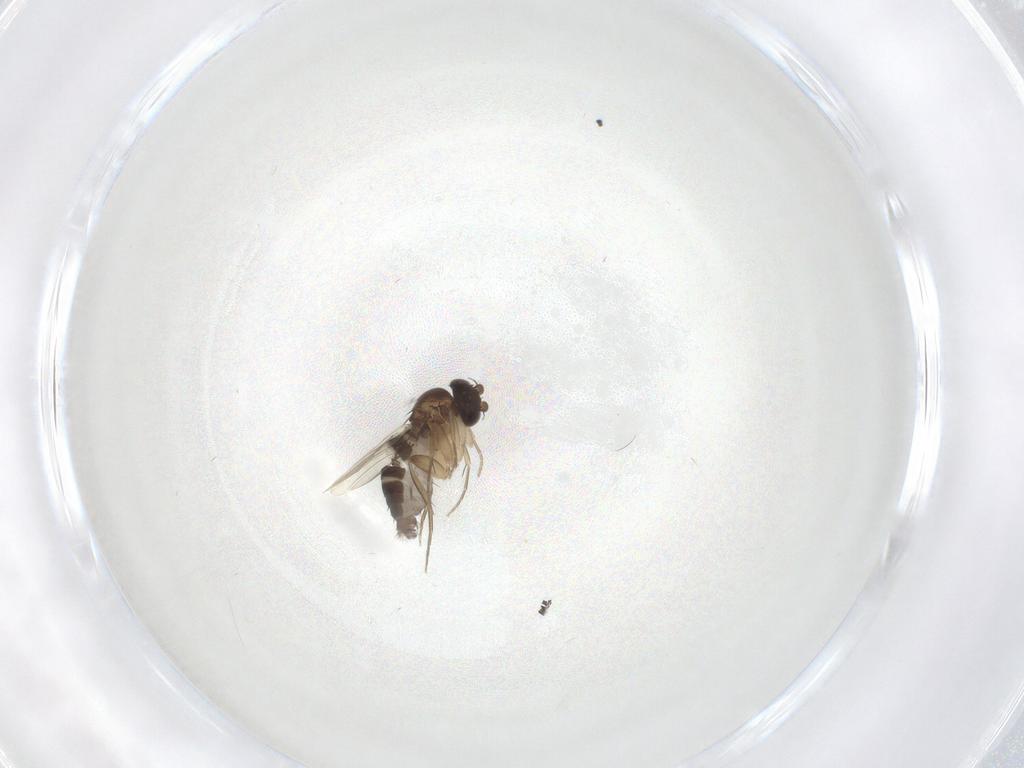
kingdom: Animalia
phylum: Arthropoda
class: Insecta
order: Diptera
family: Phoridae
